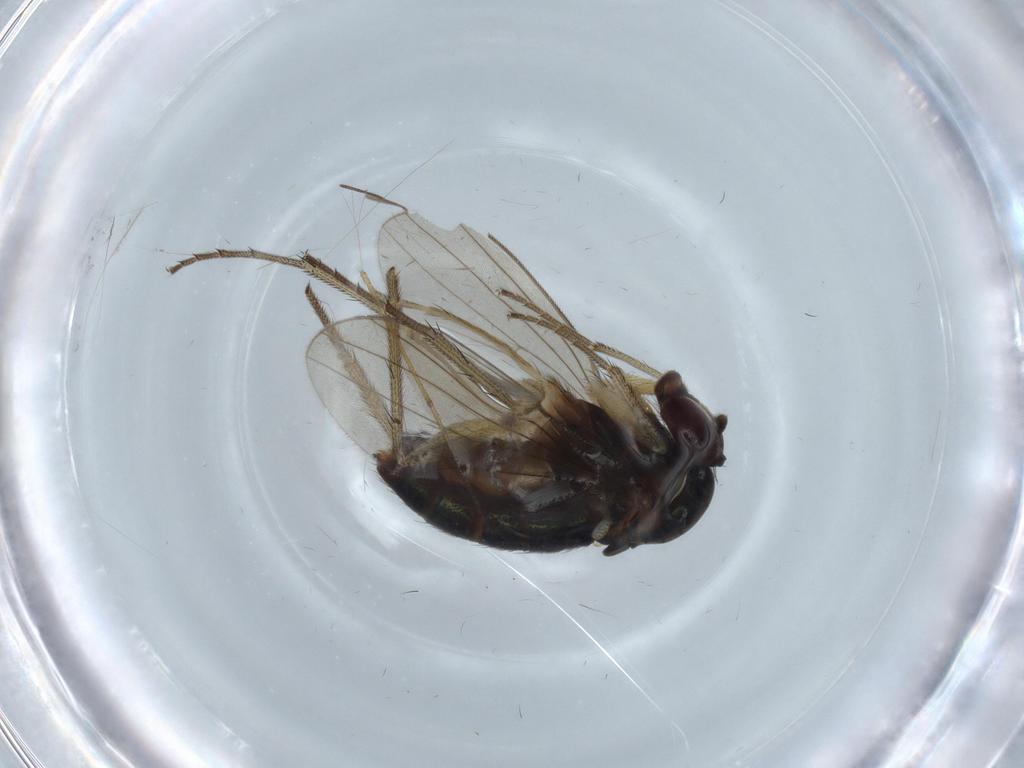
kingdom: Animalia
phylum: Arthropoda
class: Insecta
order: Diptera
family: Dolichopodidae
